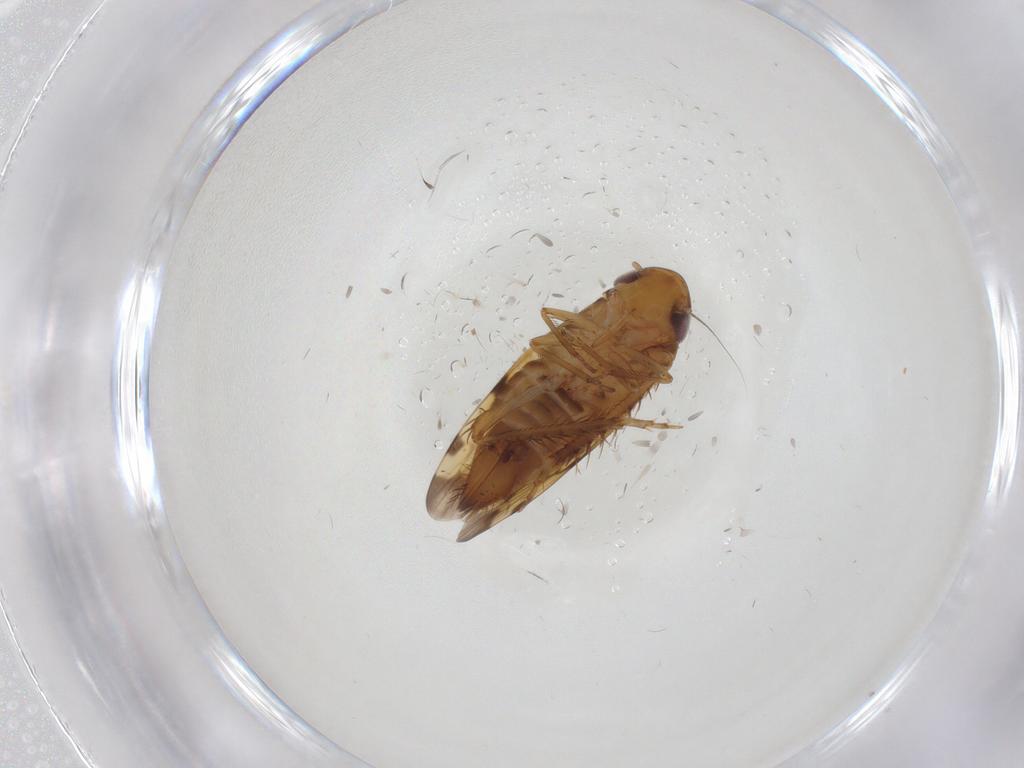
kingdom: Animalia
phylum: Arthropoda
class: Insecta
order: Hemiptera
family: Cicadellidae
